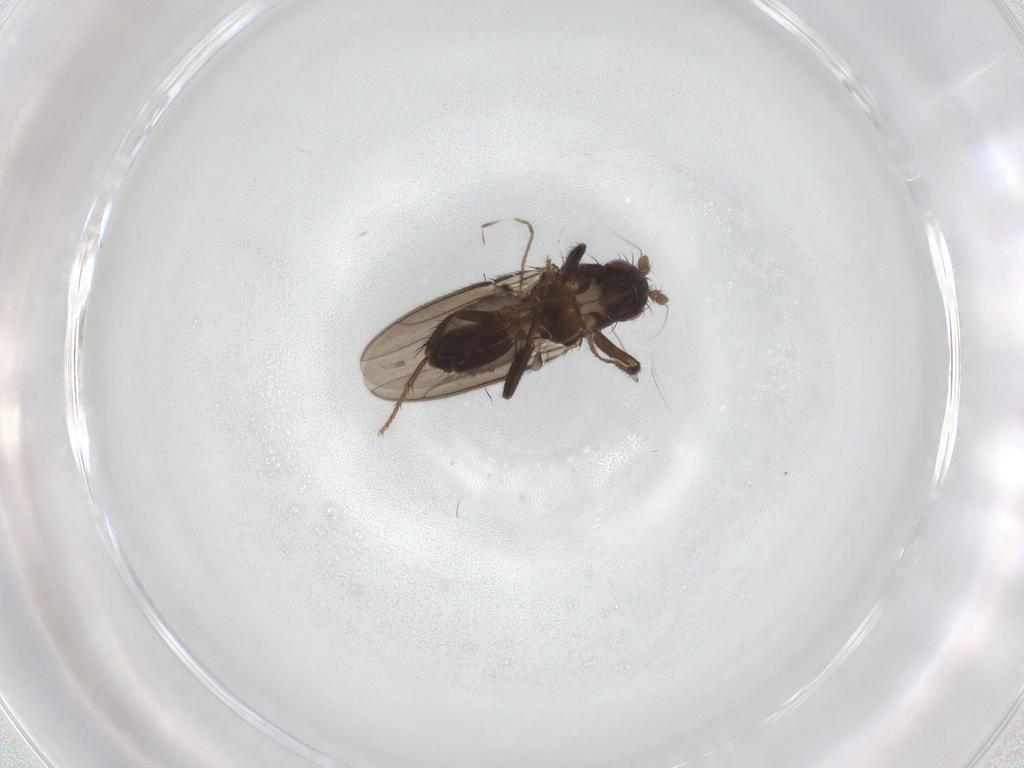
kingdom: Animalia
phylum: Arthropoda
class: Insecta
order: Diptera
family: Chironomidae
